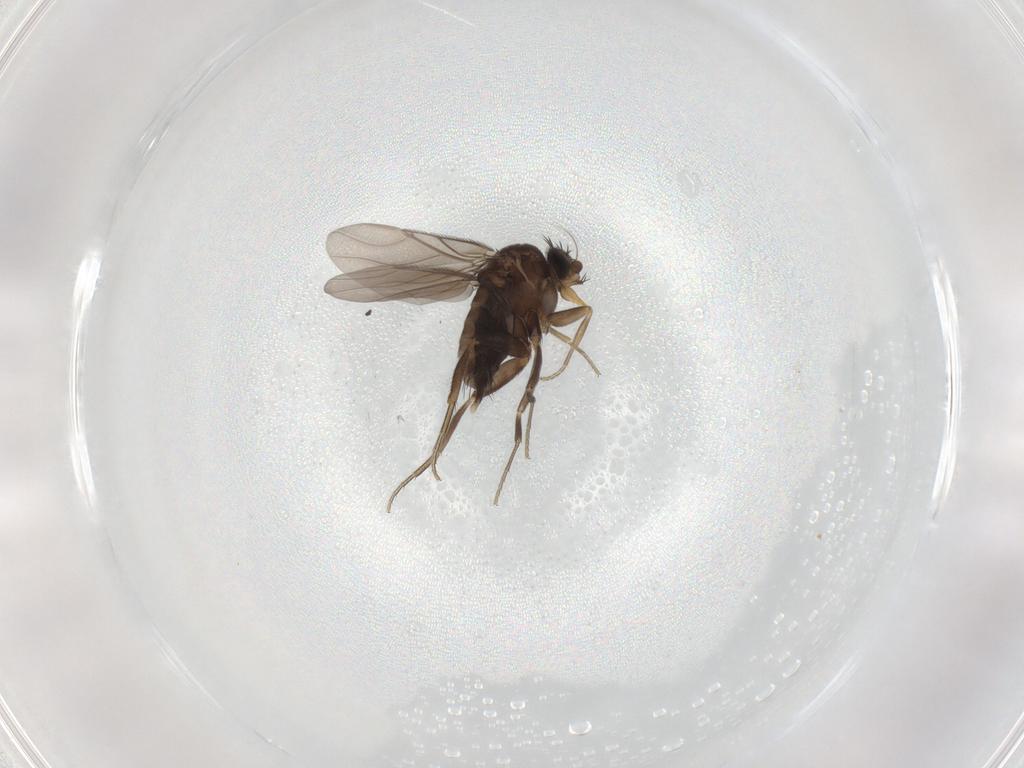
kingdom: Animalia
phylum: Arthropoda
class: Insecta
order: Diptera
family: Phoridae
